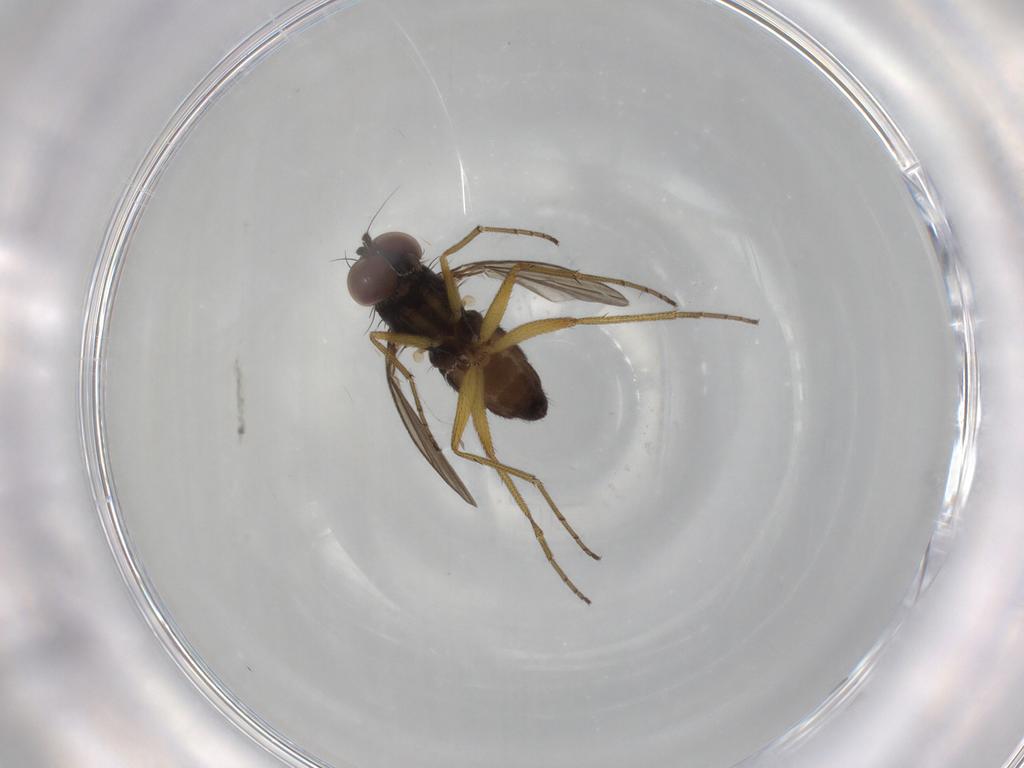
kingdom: Animalia
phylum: Arthropoda
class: Insecta
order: Diptera
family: Dolichopodidae
